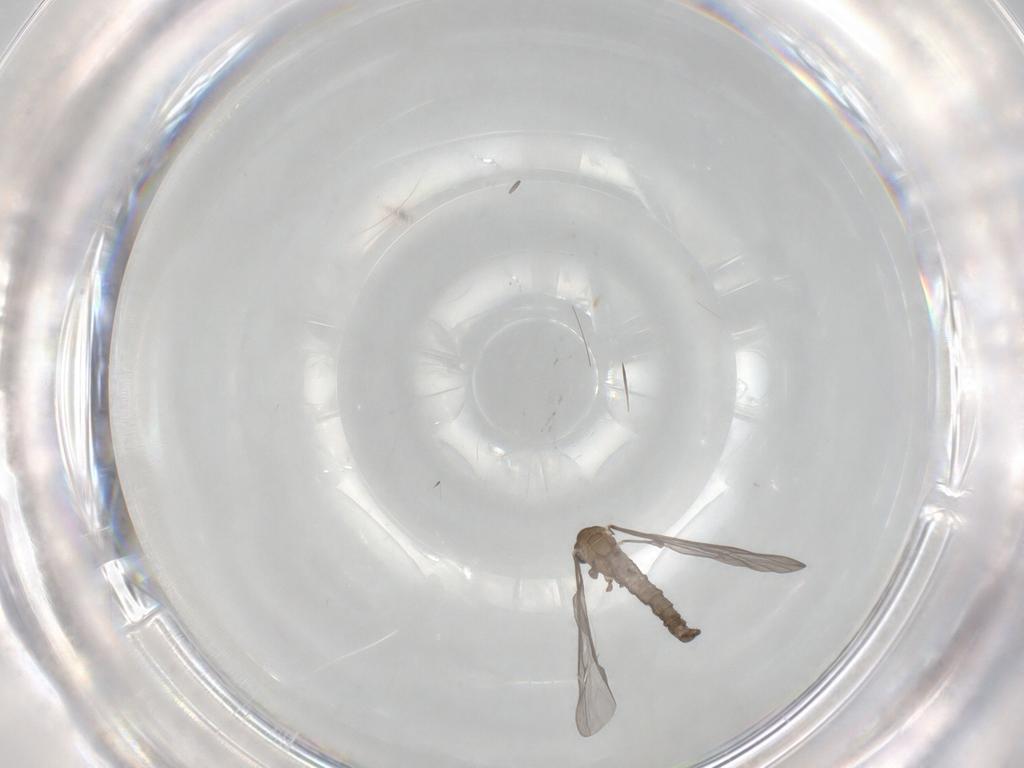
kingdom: Animalia
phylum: Arthropoda
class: Insecta
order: Diptera
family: Limoniidae
